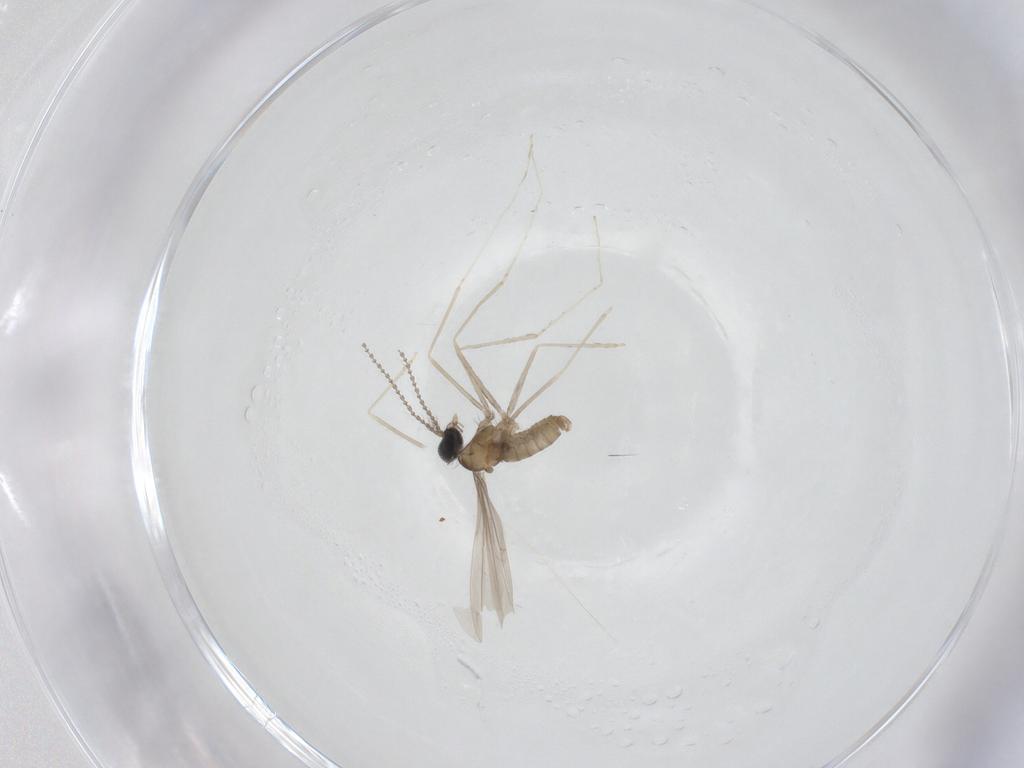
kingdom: Animalia
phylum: Arthropoda
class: Insecta
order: Diptera
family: Cecidomyiidae
